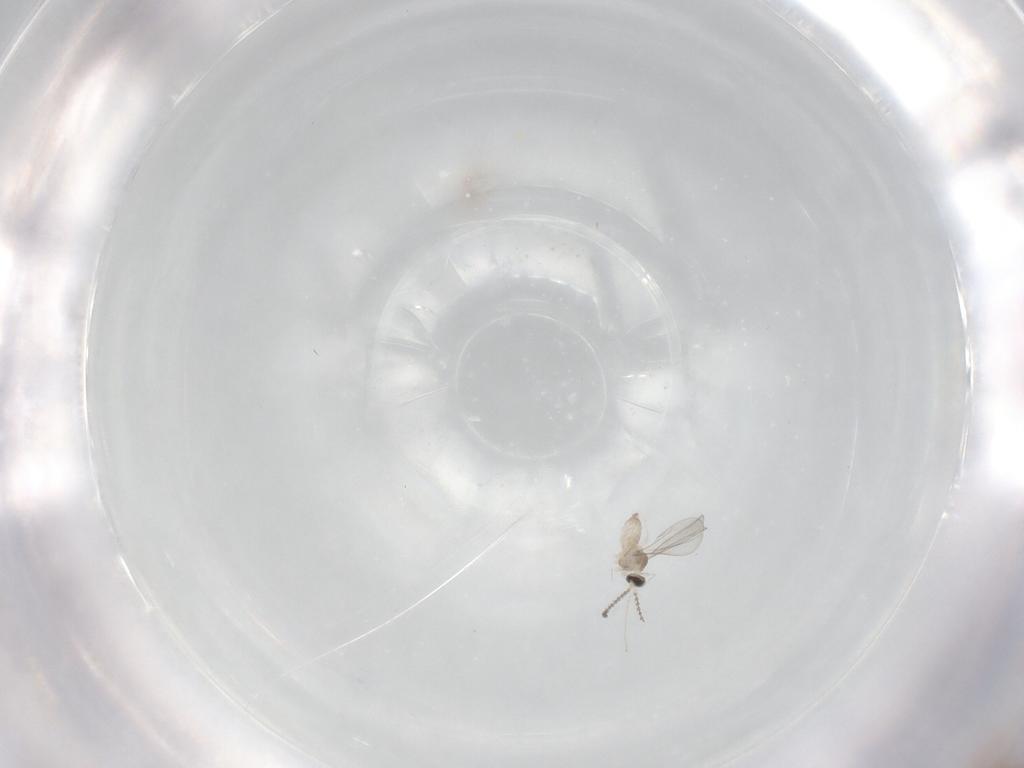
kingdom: Animalia
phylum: Arthropoda
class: Insecta
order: Diptera
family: Cecidomyiidae
